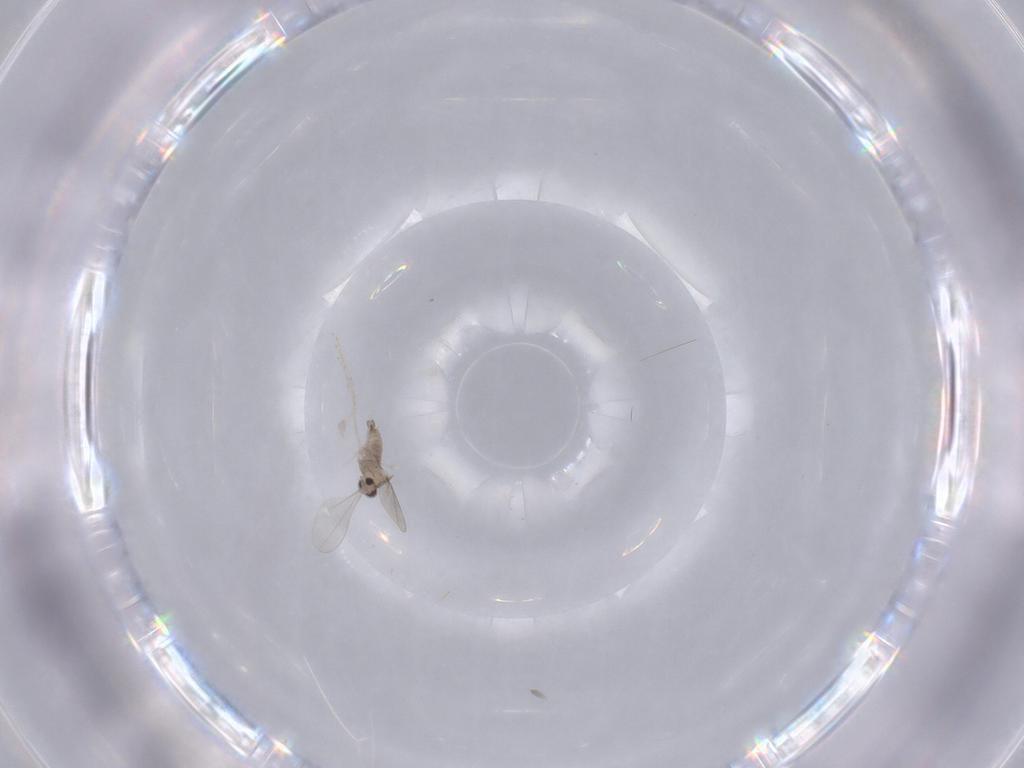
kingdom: Animalia
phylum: Arthropoda
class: Insecta
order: Diptera
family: Cecidomyiidae
